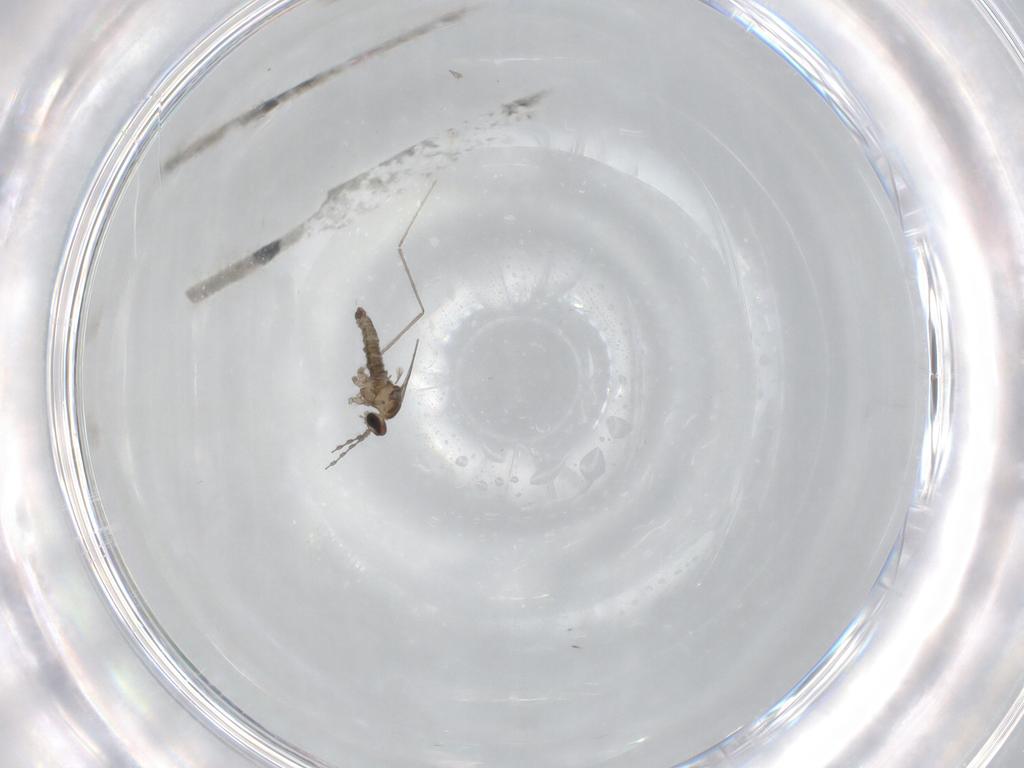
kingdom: Animalia
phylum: Arthropoda
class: Insecta
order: Diptera
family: Cecidomyiidae
